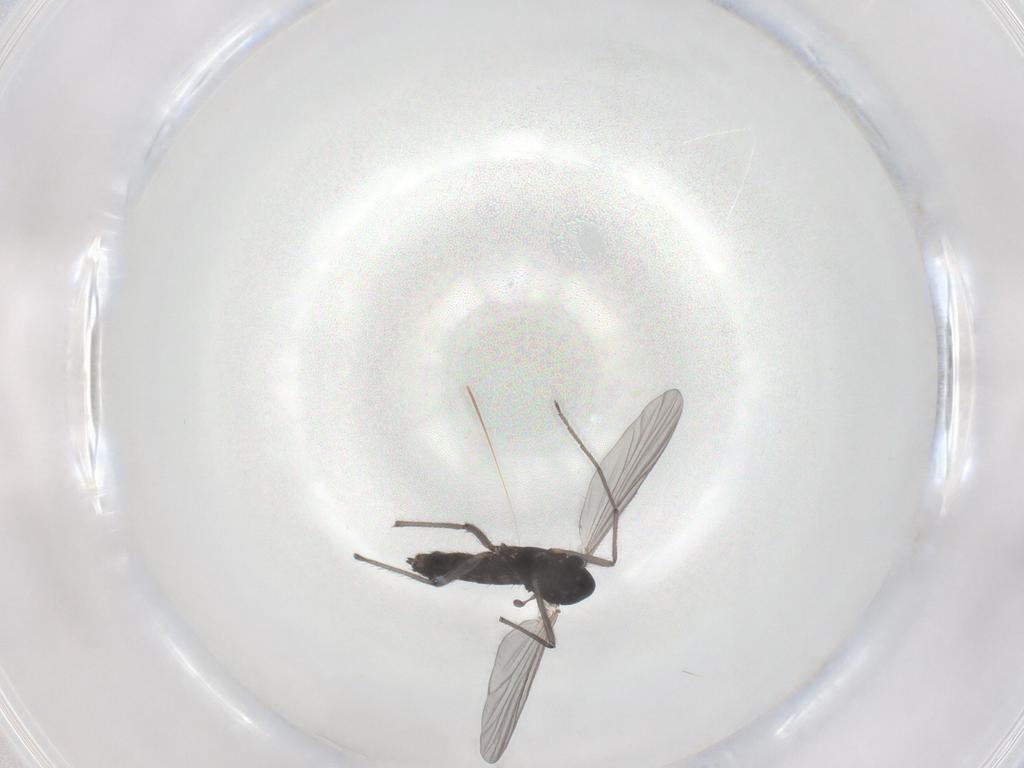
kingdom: Animalia
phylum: Arthropoda
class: Insecta
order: Diptera
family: Chironomidae
